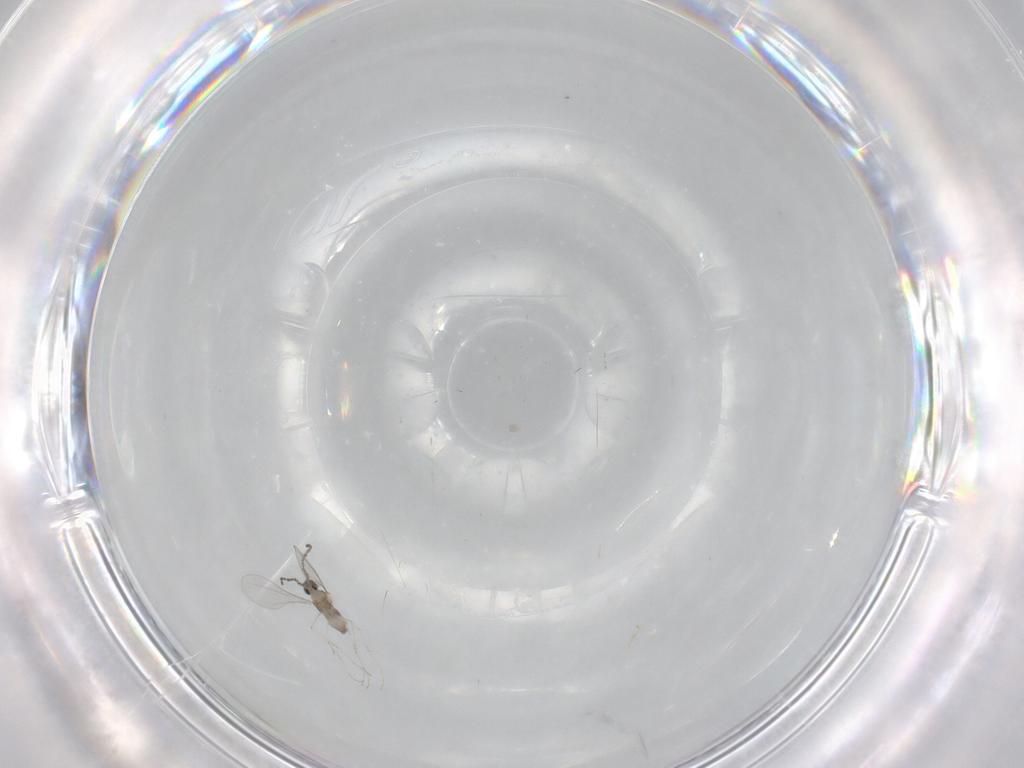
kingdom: Animalia
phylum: Arthropoda
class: Insecta
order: Diptera
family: Cecidomyiidae
